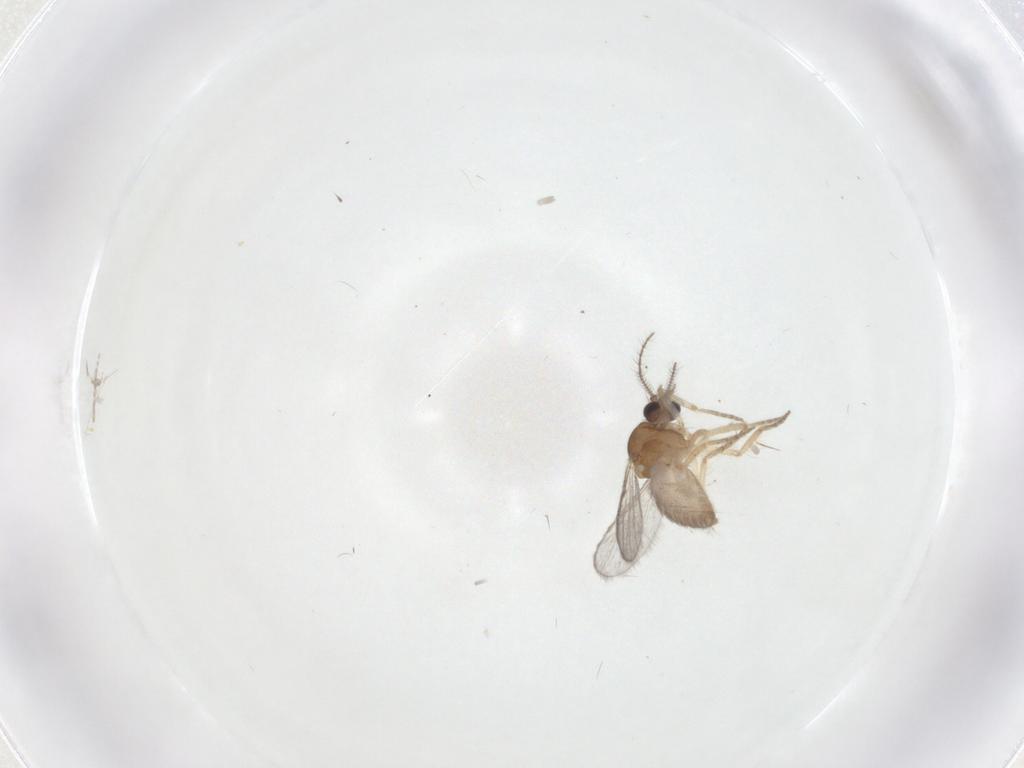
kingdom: Animalia
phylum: Arthropoda
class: Insecta
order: Diptera
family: Ceratopogonidae
